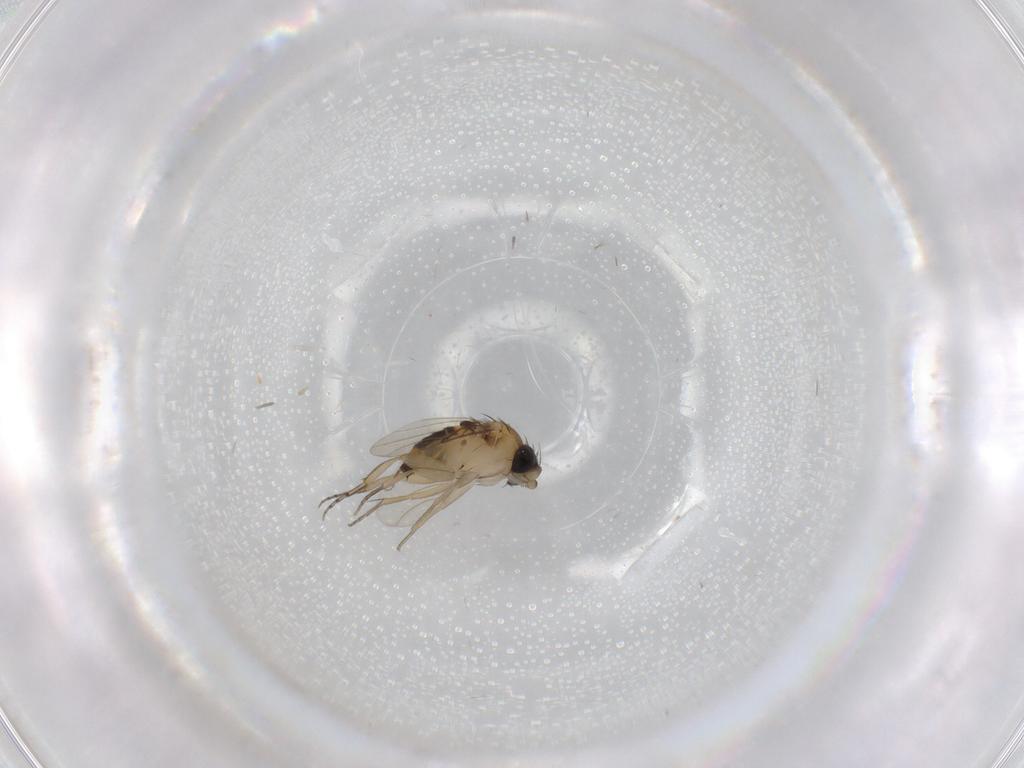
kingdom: Animalia
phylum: Arthropoda
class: Insecta
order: Diptera
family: Phoridae
